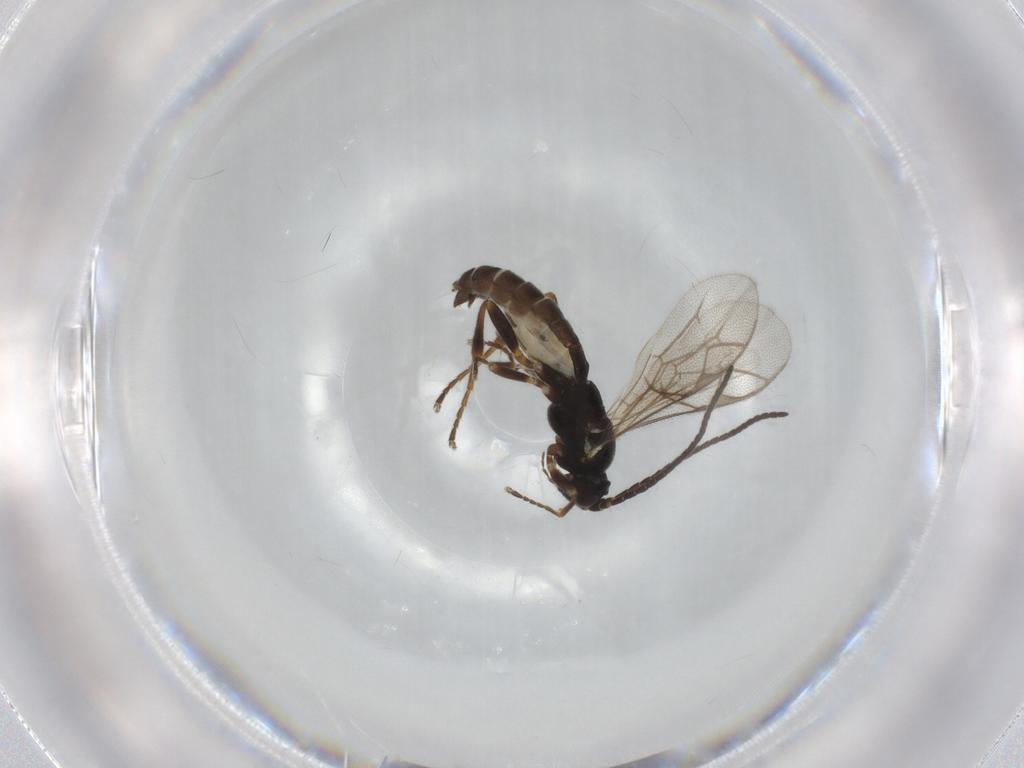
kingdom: Animalia
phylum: Arthropoda
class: Insecta
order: Hymenoptera
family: Ichneumonidae
